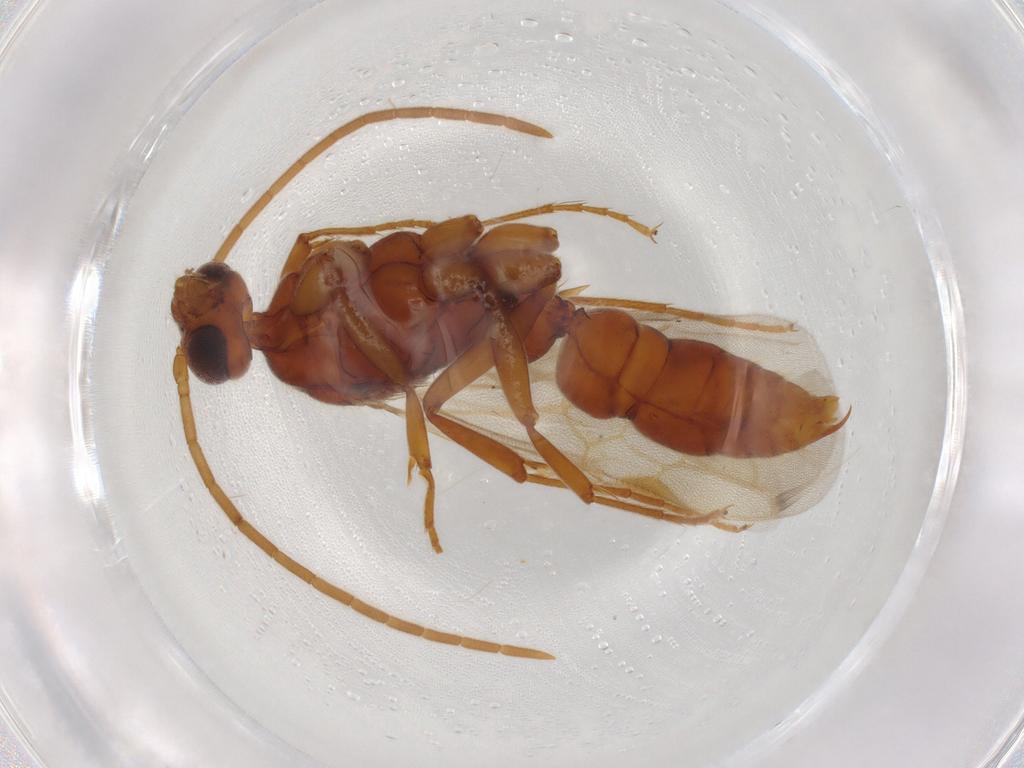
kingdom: Animalia
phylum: Arthropoda
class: Insecta
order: Hymenoptera
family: Formicidae
